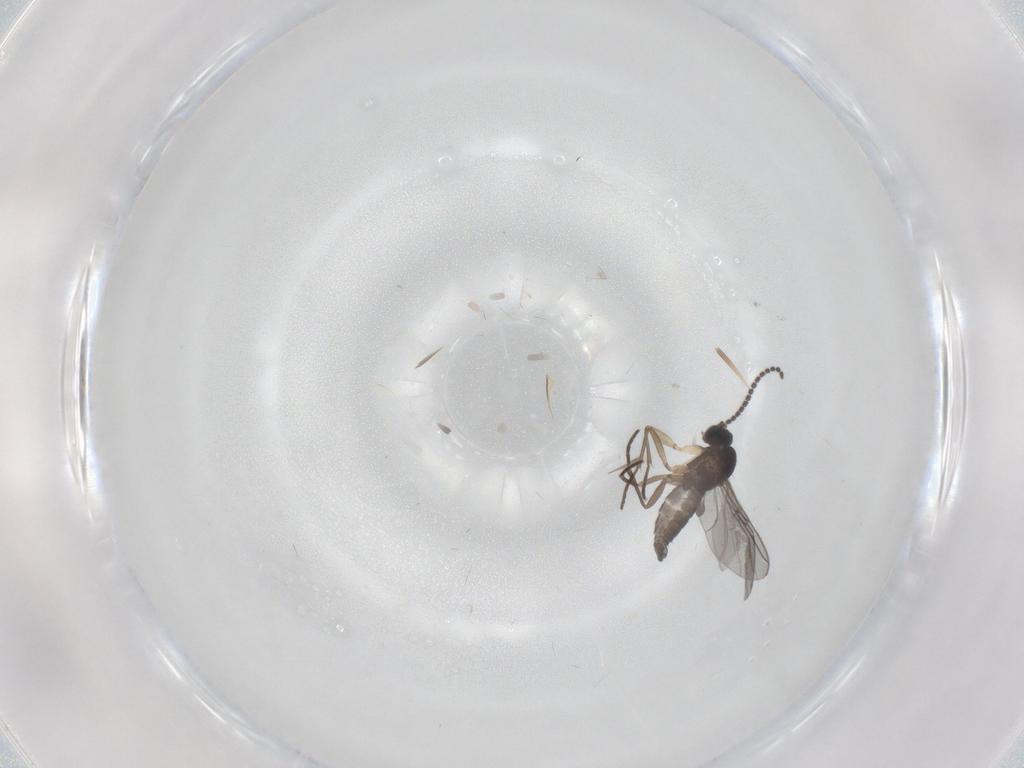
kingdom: Animalia
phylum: Arthropoda
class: Insecta
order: Diptera
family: Sciaridae
